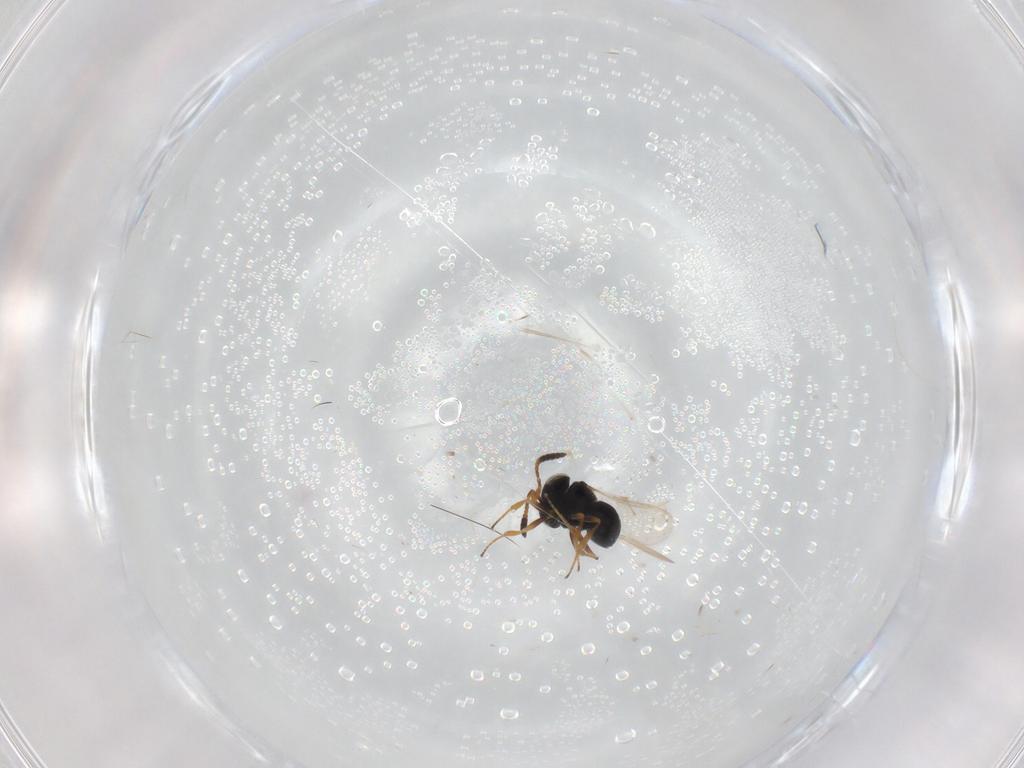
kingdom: Animalia
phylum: Arthropoda
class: Insecta
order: Hymenoptera
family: Scelionidae
